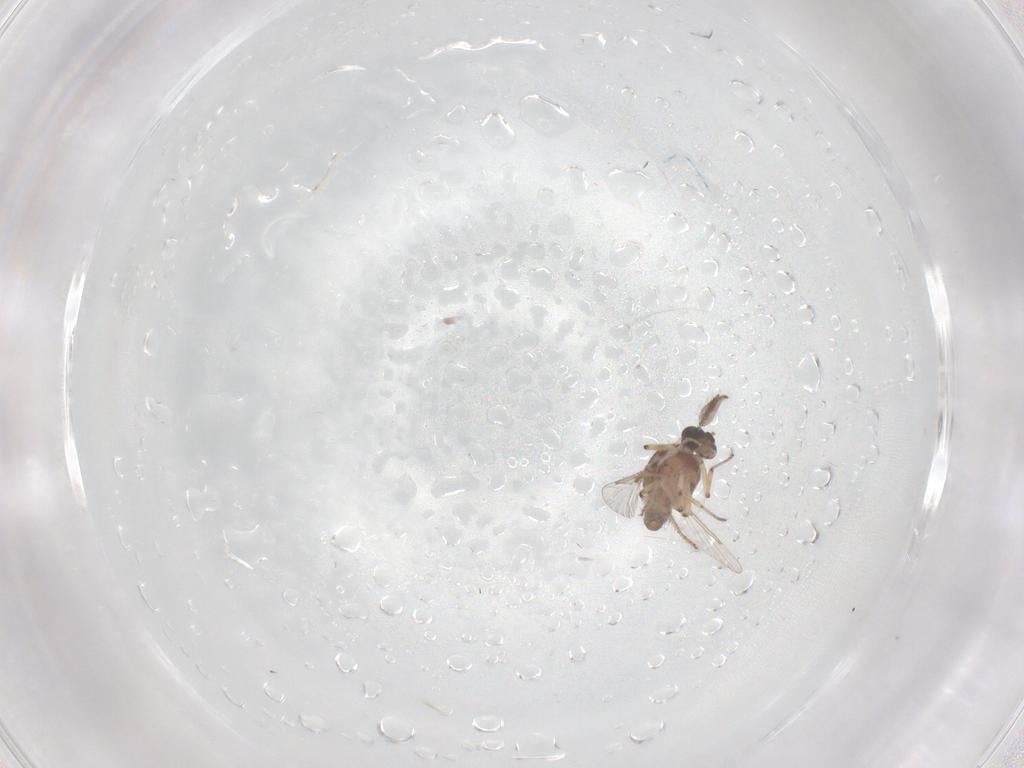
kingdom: Animalia
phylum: Arthropoda
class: Insecta
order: Diptera
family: Ceratopogonidae
